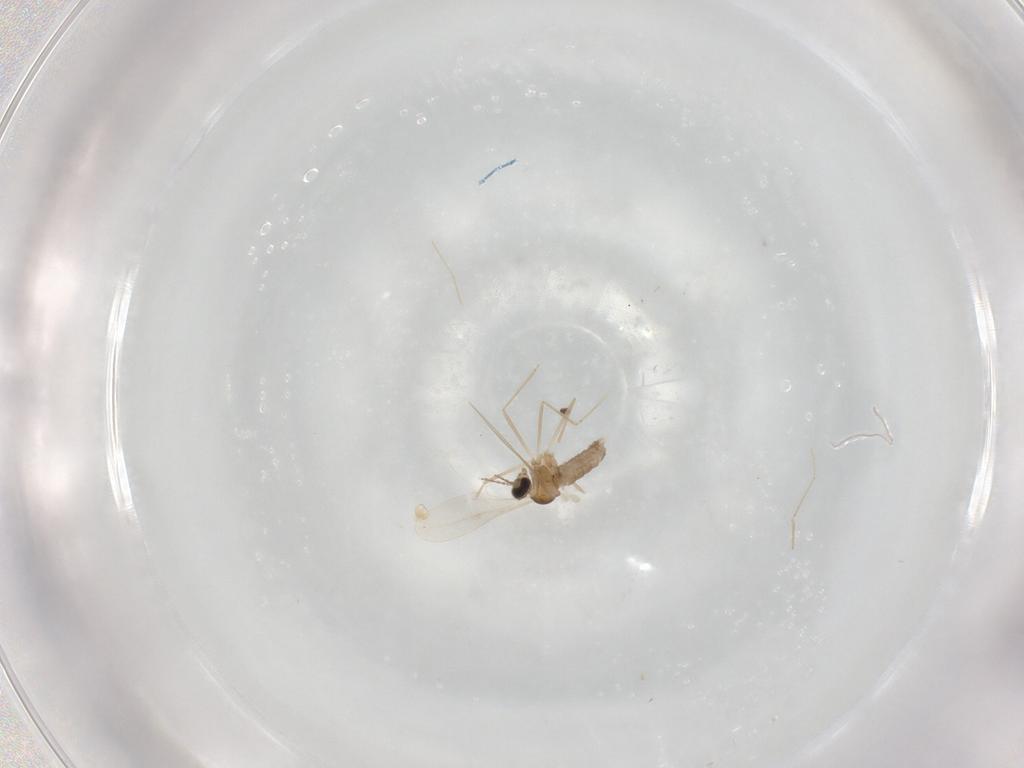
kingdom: Animalia
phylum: Arthropoda
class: Insecta
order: Diptera
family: Cecidomyiidae
